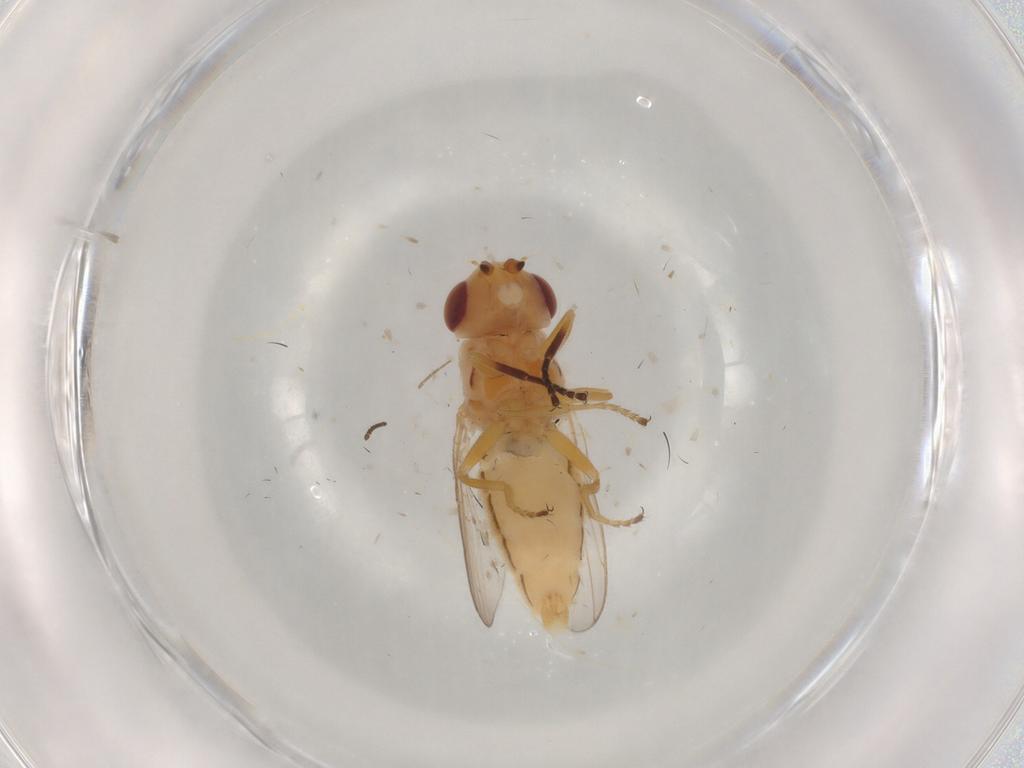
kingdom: Animalia
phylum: Arthropoda
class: Insecta
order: Diptera
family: Chloropidae
